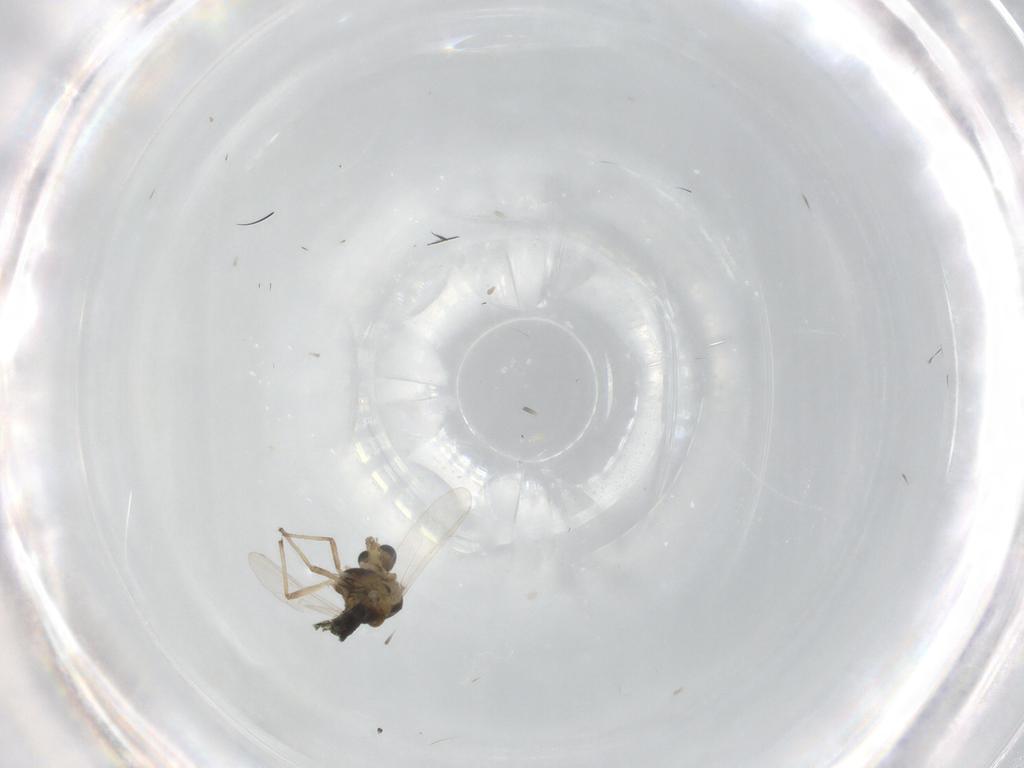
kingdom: Animalia
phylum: Arthropoda
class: Insecta
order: Diptera
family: Chironomidae
